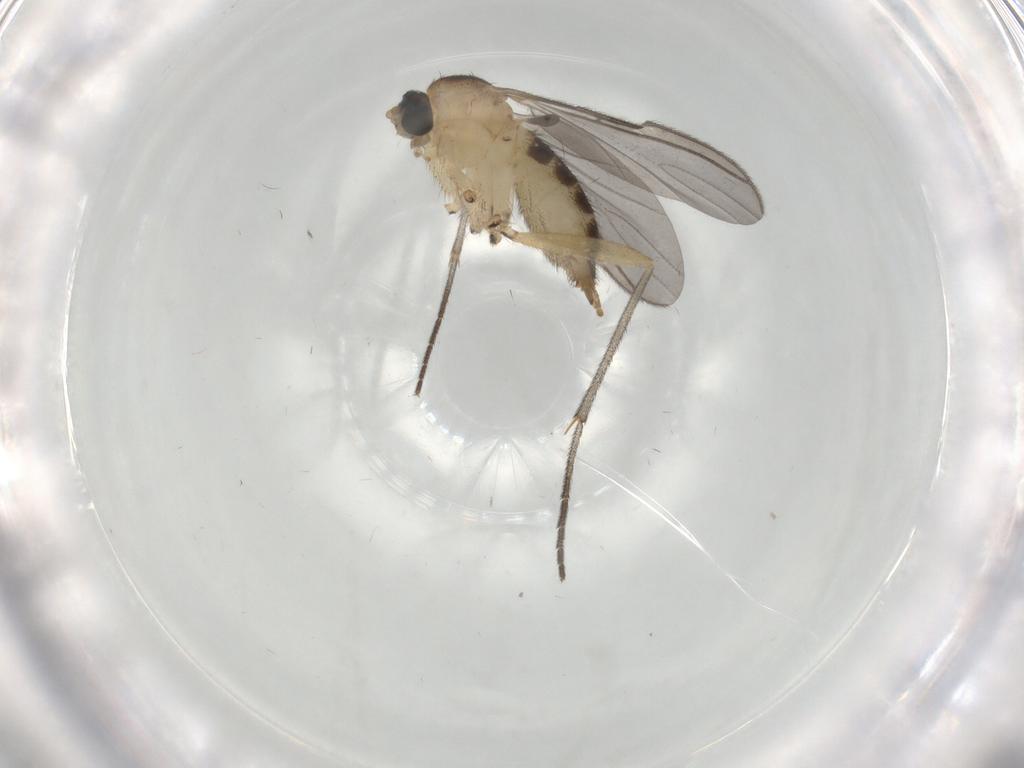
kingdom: Animalia
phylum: Arthropoda
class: Insecta
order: Diptera
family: Sciaridae
